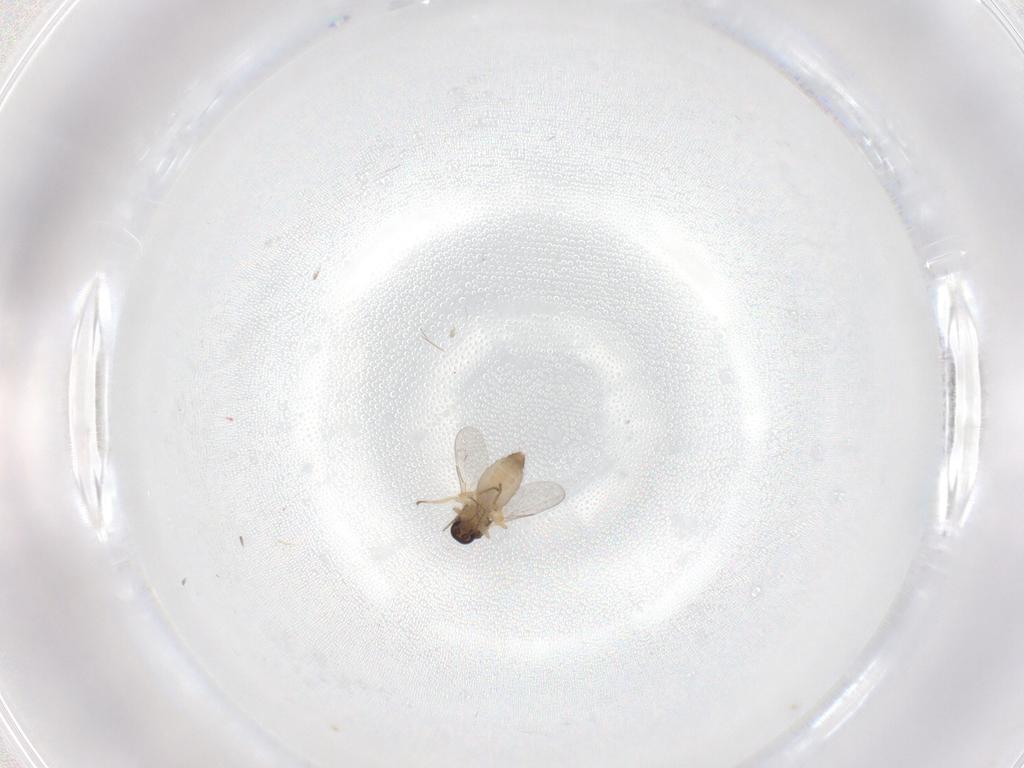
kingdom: Animalia
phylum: Arthropoda
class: Insecta
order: Diptera
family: Ceratopogonidae
